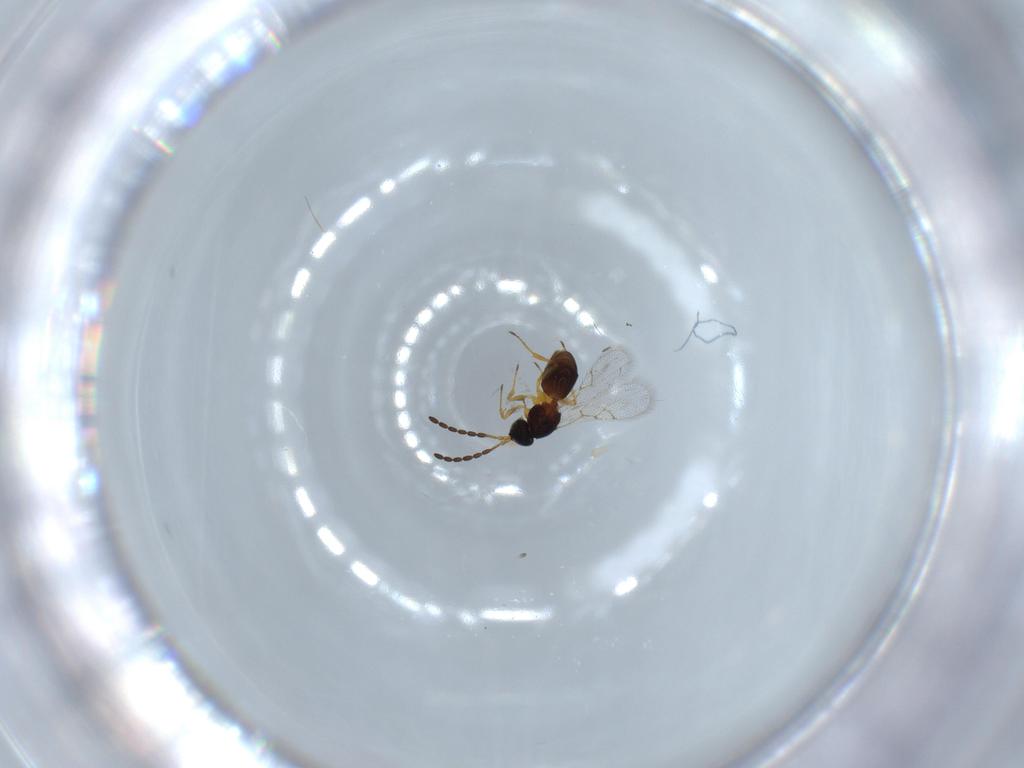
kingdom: Animalia
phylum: Arthropoda
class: Insecta
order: Hymenoptera
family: Figitidae
